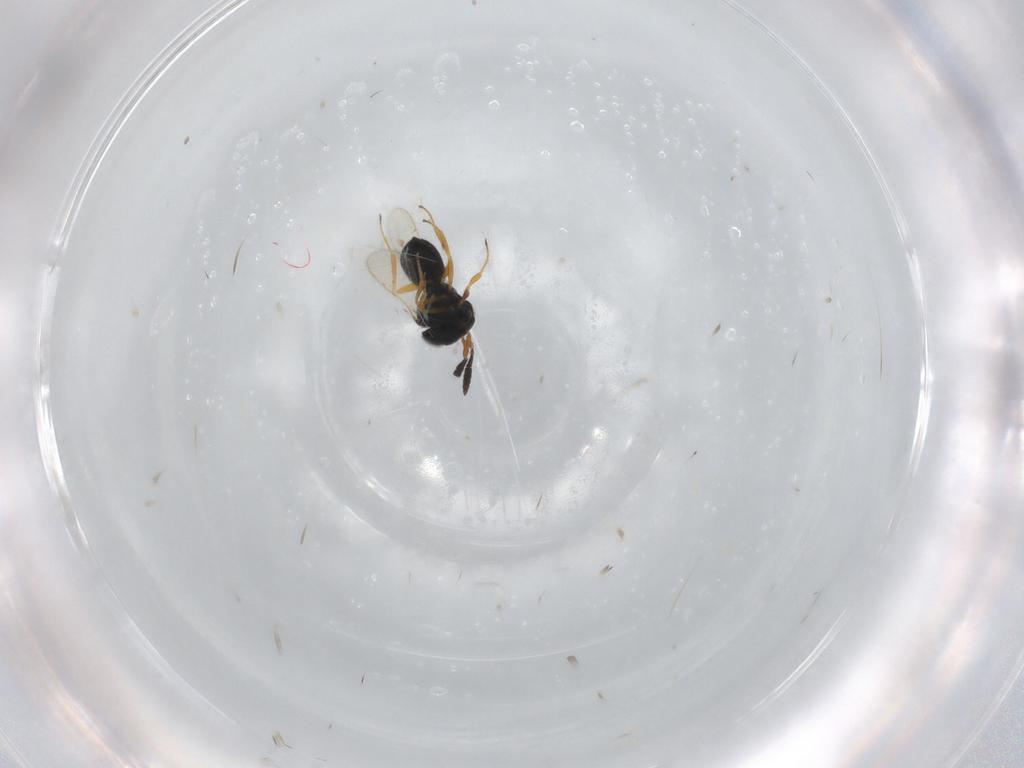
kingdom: Animalia
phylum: Arthropoda
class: Insecta
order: Hymenoptera
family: Scelionidae
